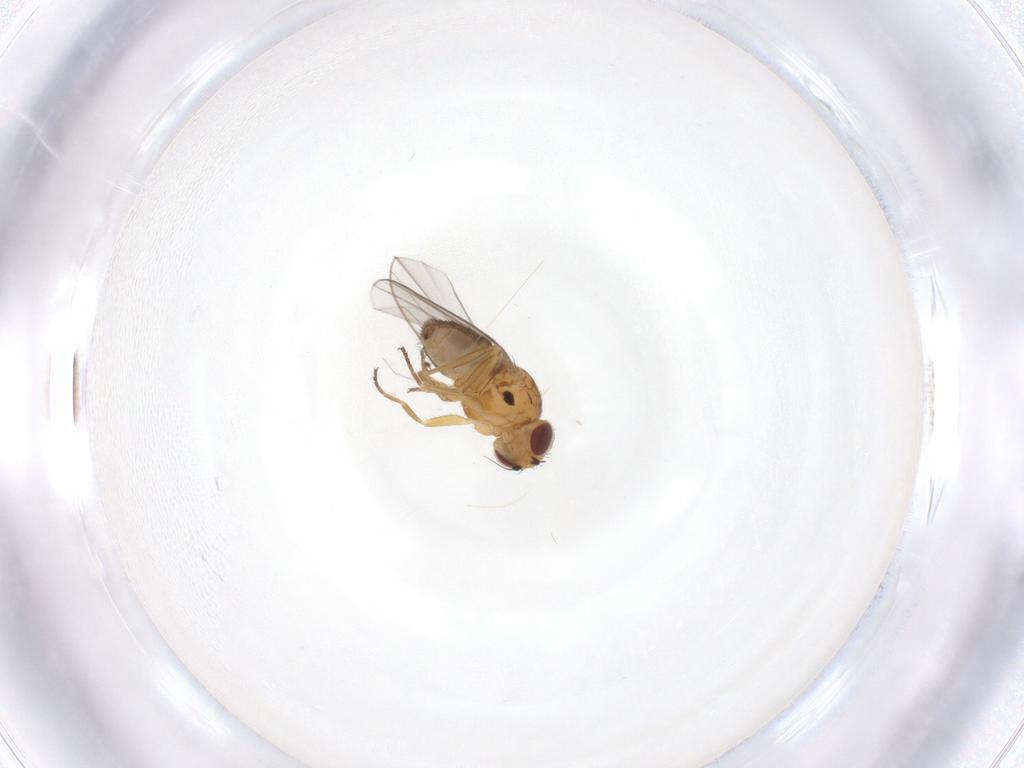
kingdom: Animalia
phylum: Arthropoda
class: Insecta
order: Diptera
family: Chloropidae
